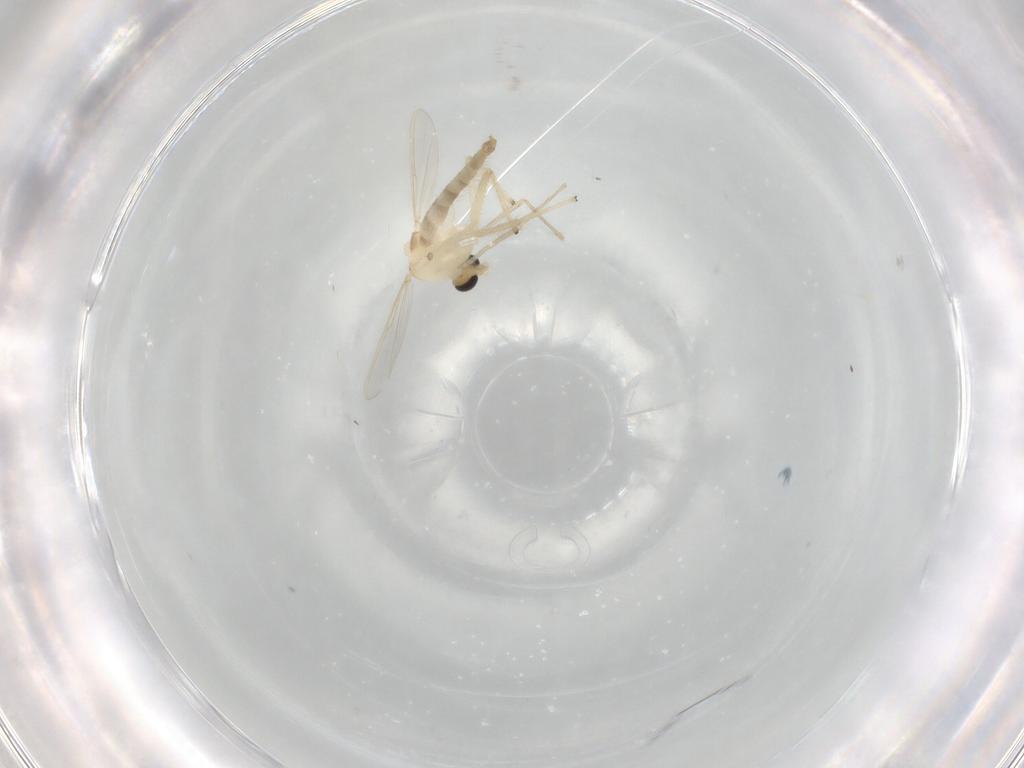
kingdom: Animalia
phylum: Arthropoda
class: Insecta
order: Diptera
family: Chironomidae
